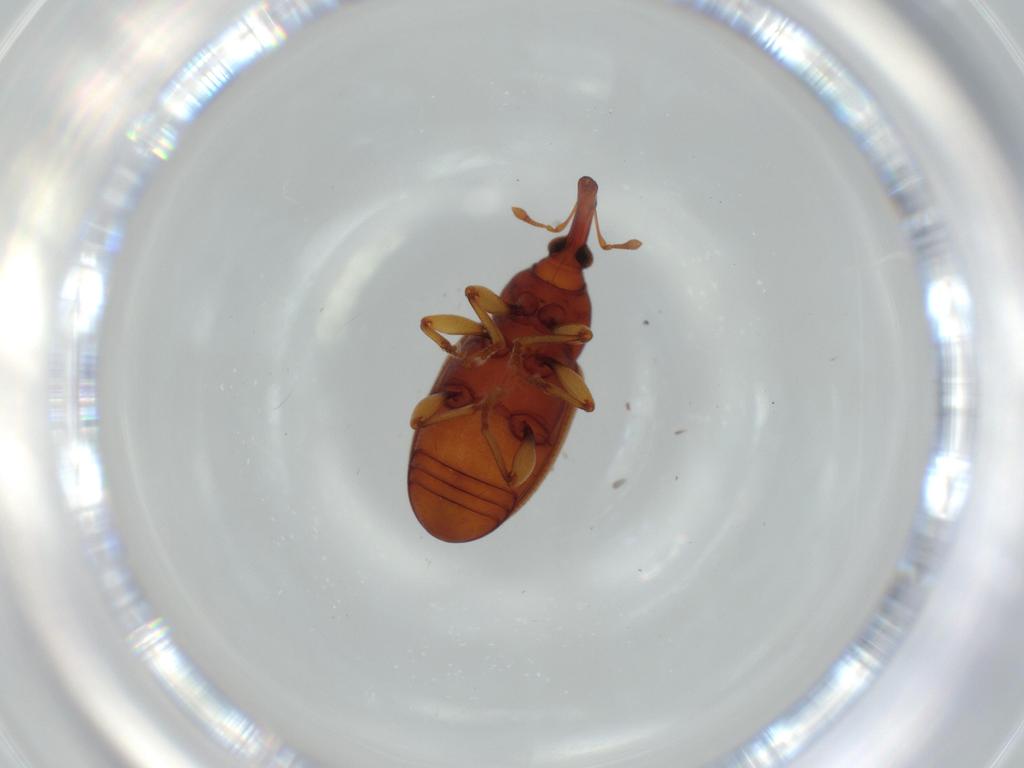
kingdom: Animalia
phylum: Arthropoda
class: Insecta
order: Coleoptera
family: Curculionidae
